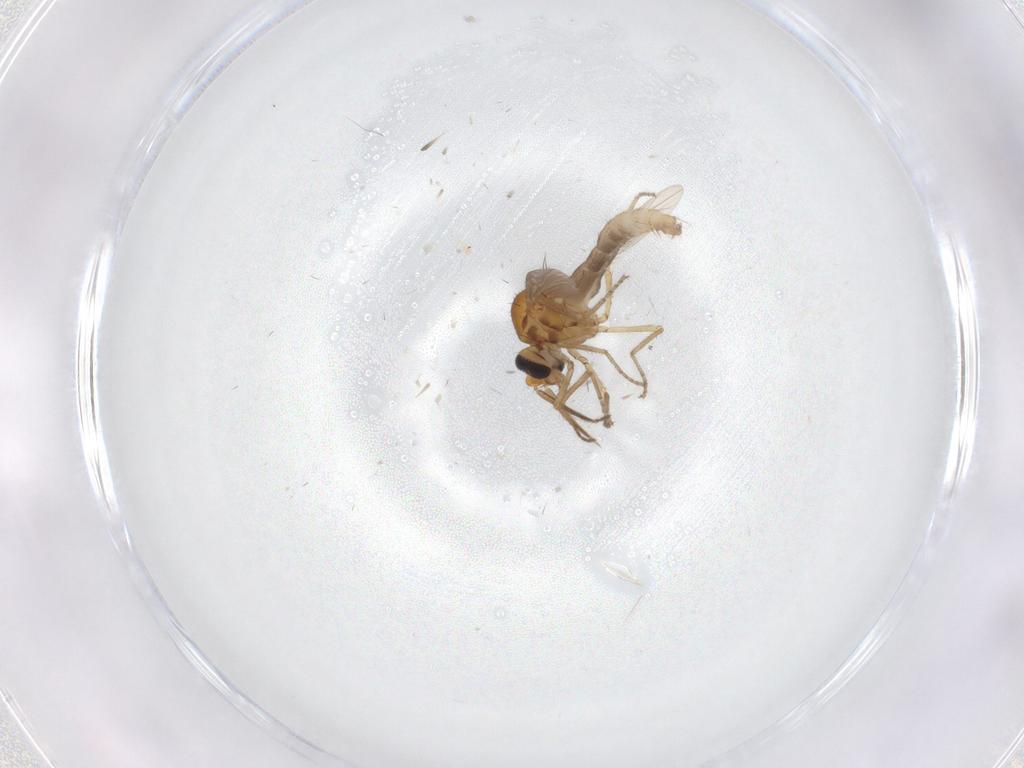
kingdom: Animalia
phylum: Arthropoda
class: Insecta
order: Diptera
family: Ceratopogonidae
